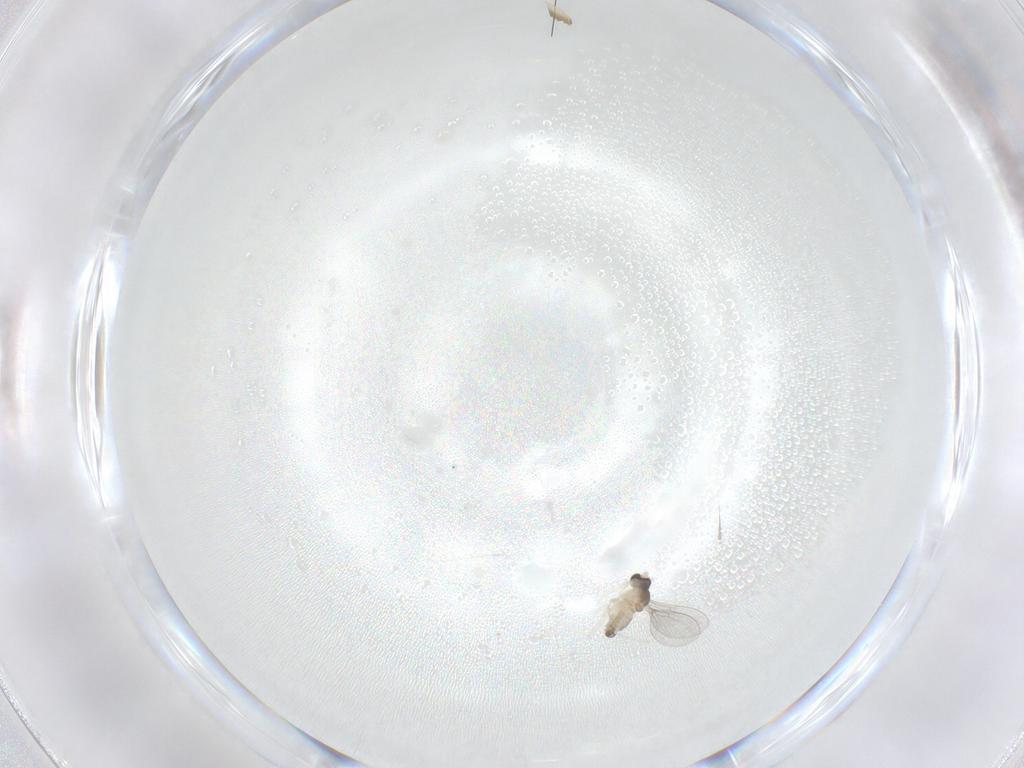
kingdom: Animalia
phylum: Arthropoda
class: Insecta
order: Diptera
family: Cecidomyiidae
